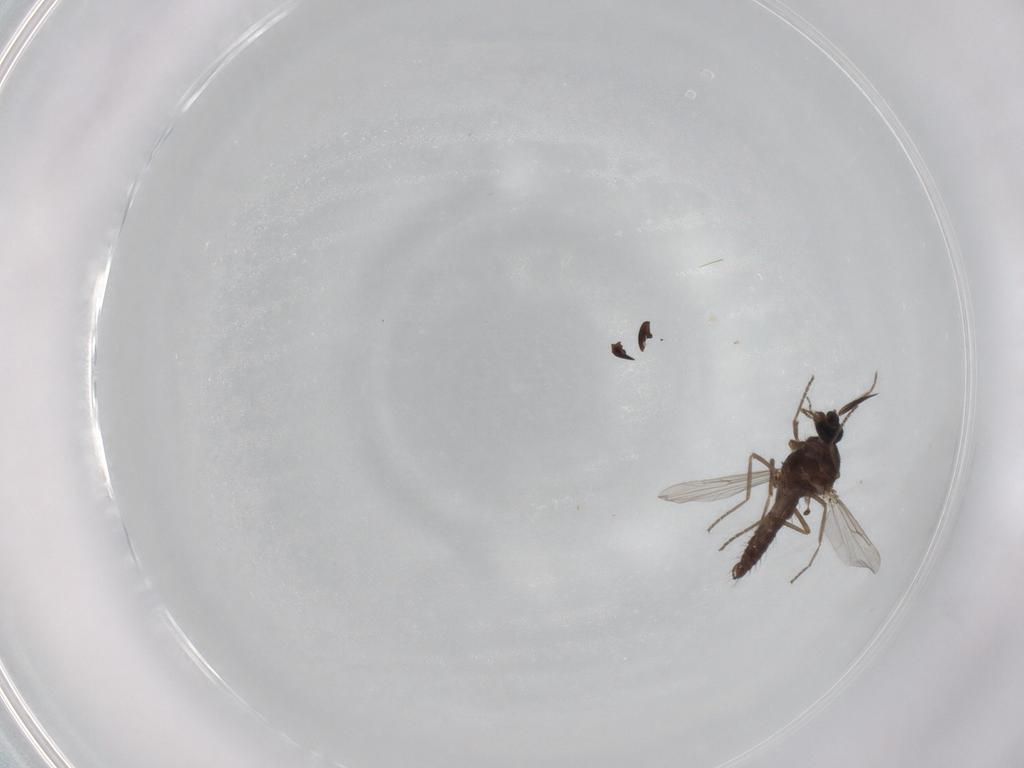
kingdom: Animalia
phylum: Arthropoda
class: Insecta
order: Diptera
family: Ceratopogonidae
